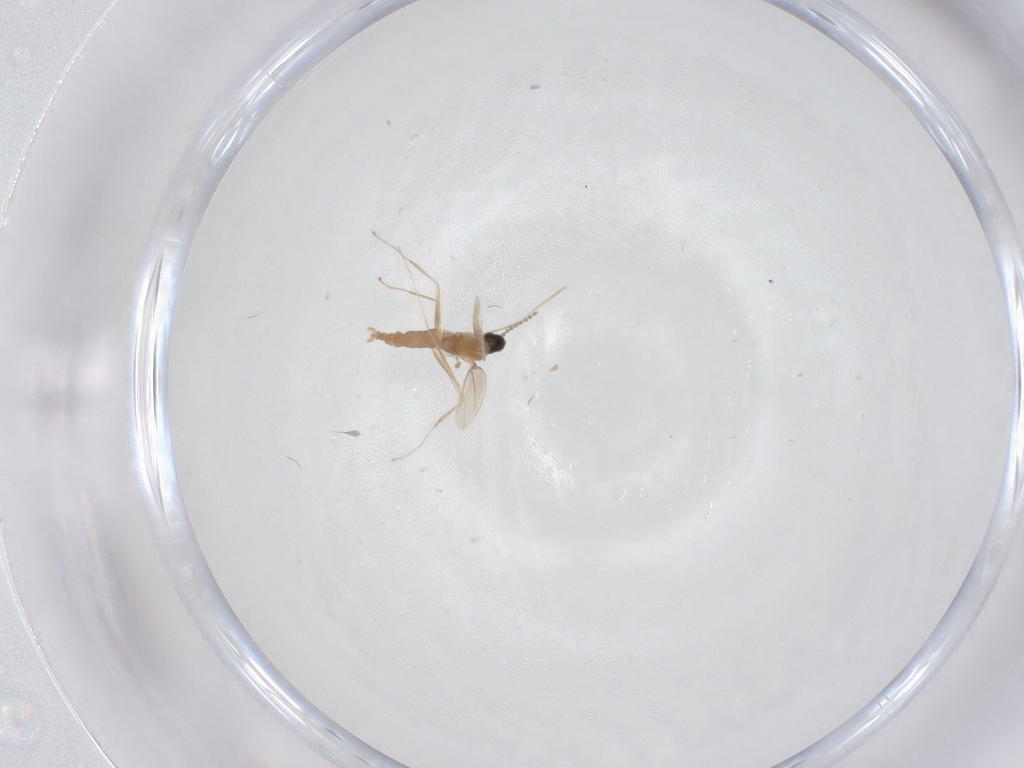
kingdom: Animalia
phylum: Arthropoda
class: Insecta
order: Diptera
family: Cecidomyiidae
